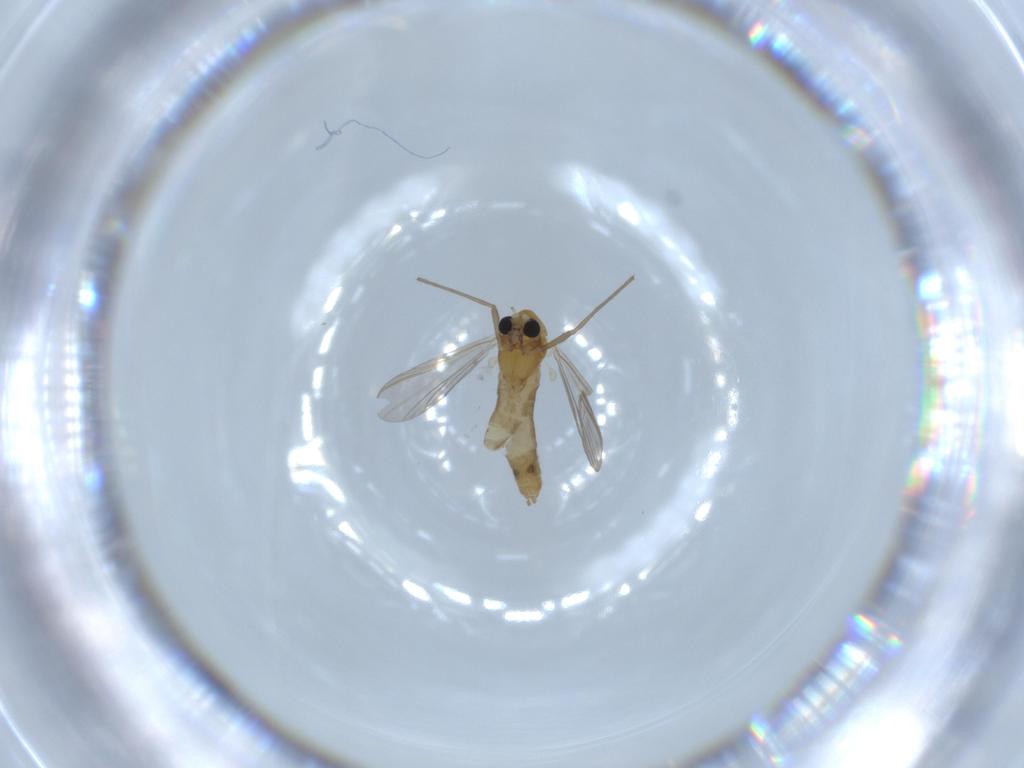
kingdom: Animalia
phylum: Arthropoda
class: Insecta
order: Diptera
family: Chironomidae
